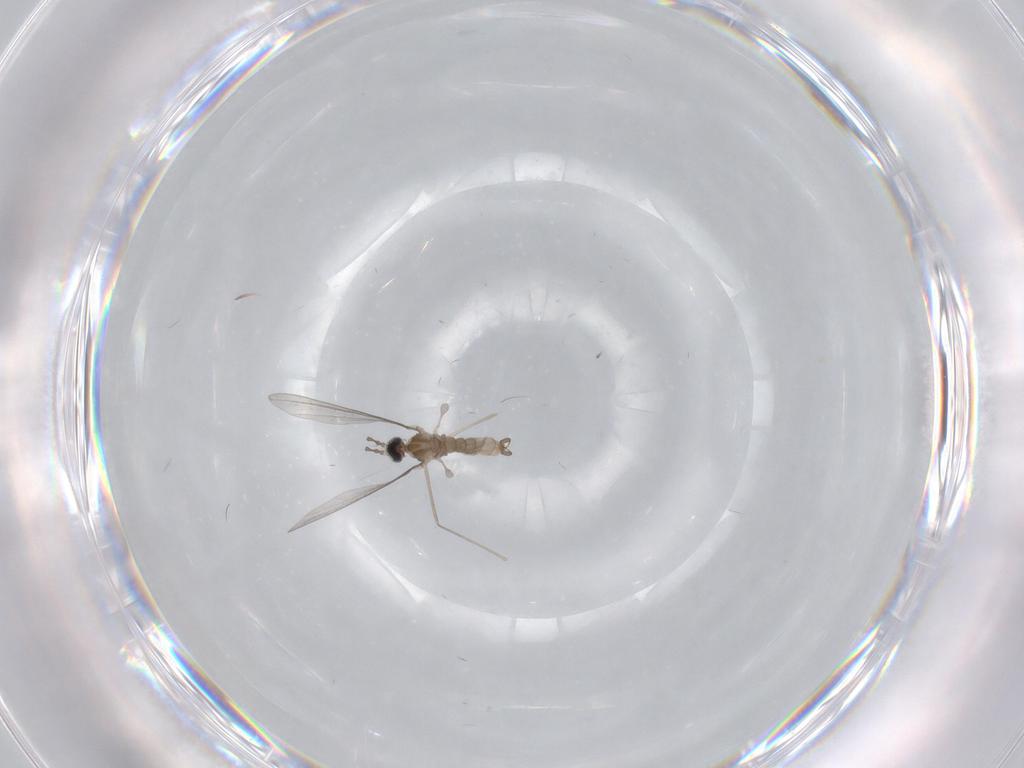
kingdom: Animalia
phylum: Arthropoda
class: Insecta
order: Diptera
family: Cecidomyiidae
